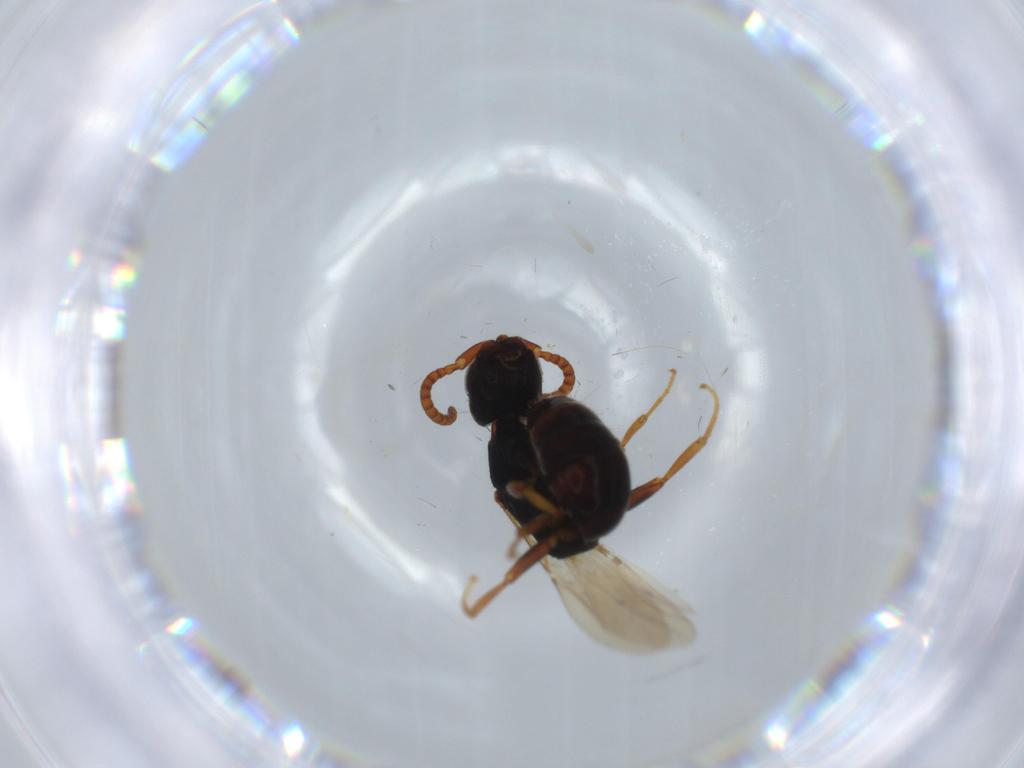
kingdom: Animalia
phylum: Arthropoda
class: Insecta
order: Hymenoptera
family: Bethylidae
